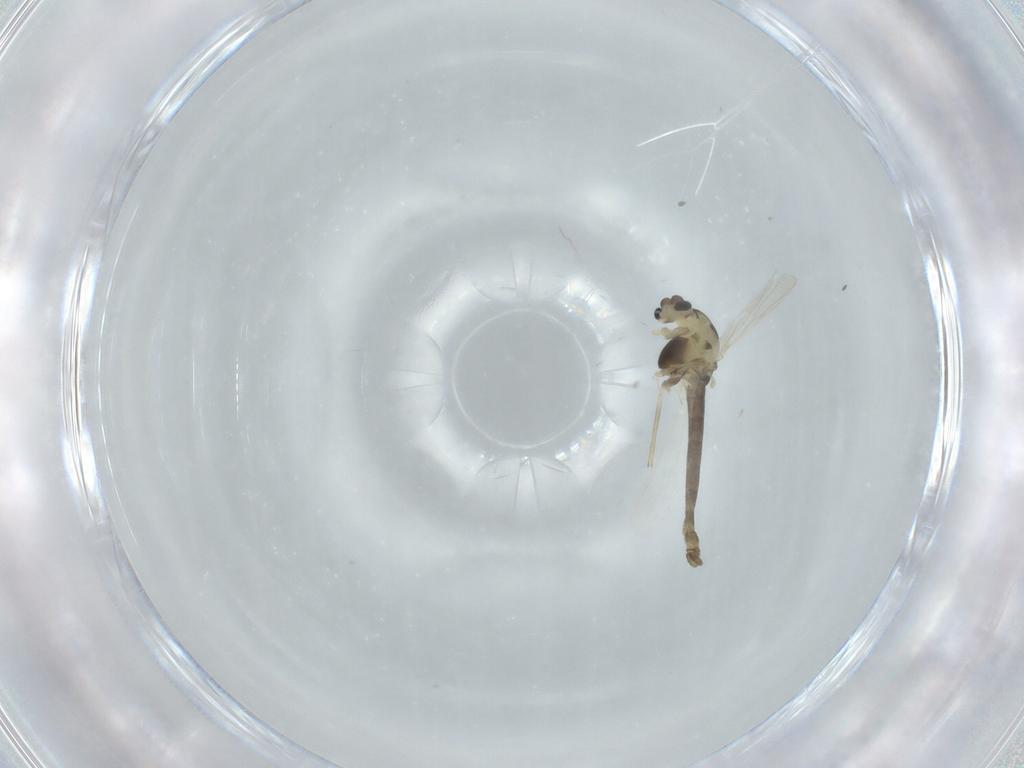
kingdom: Animalia
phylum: Arthropoda
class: Insecta
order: Diptera
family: Chironomidae
